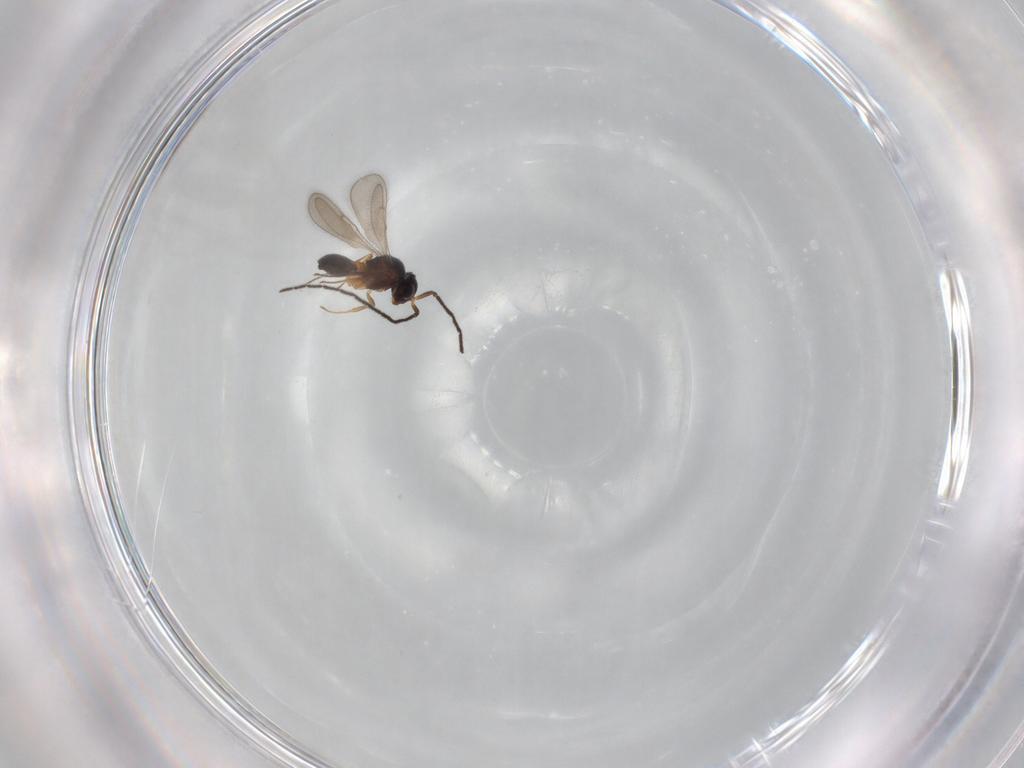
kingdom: Animalia
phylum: Arthropoda
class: Insecta
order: Hymenoptera
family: Scelionidae
